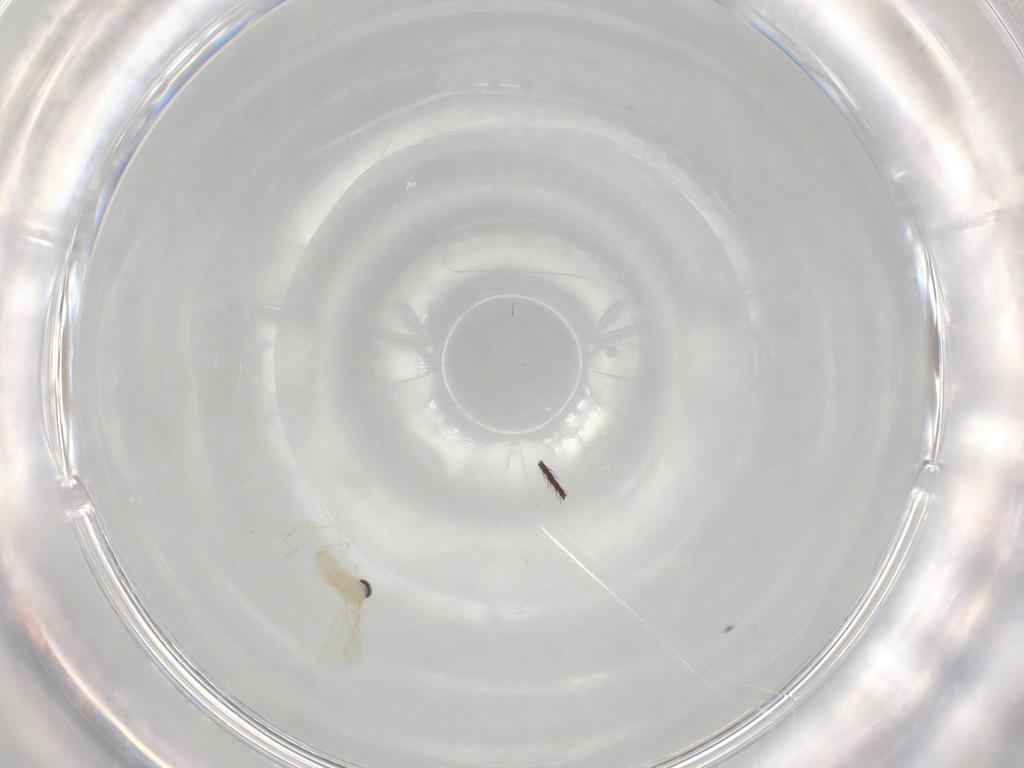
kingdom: Animalia
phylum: Arthropoda
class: Insecta
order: Diptera
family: Cecidomyiidae
